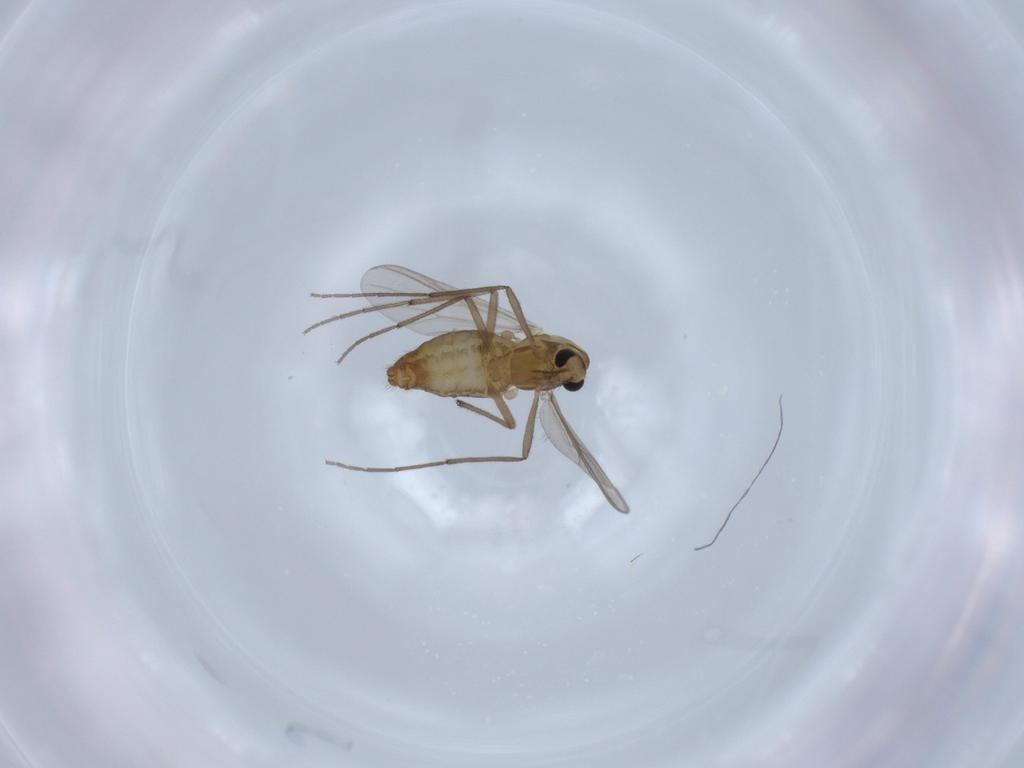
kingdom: Animalia
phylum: Arthropoda
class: Insecta
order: Diptera
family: Chironomidae
